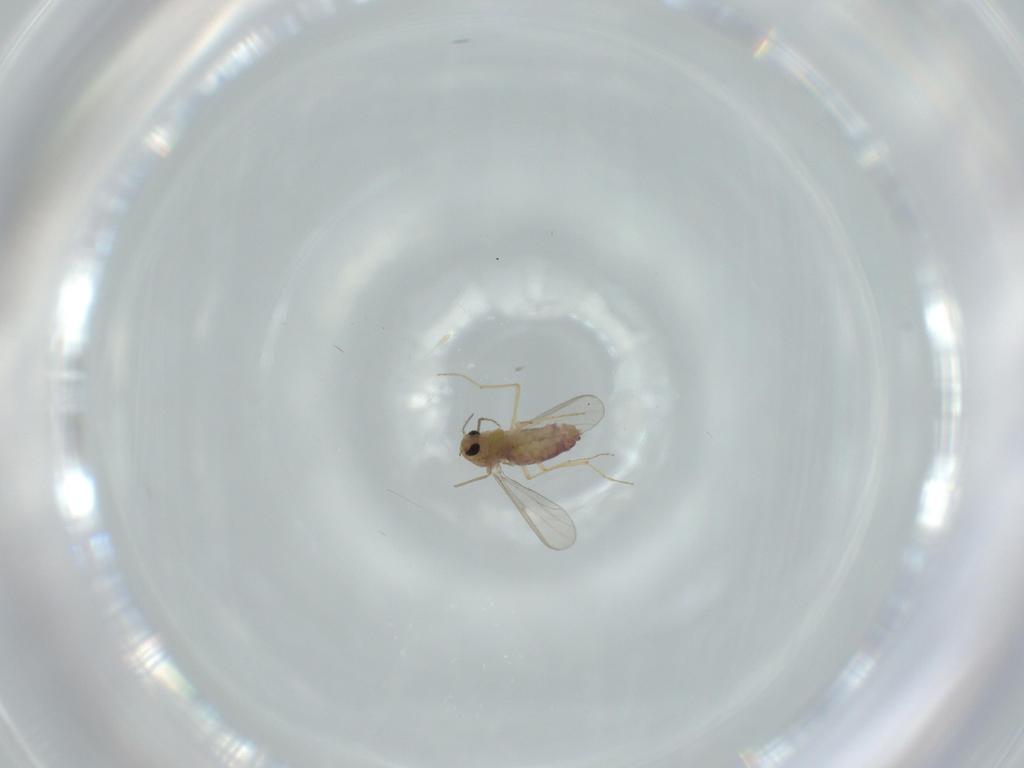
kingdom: Animalia
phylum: Arthropoda
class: Insecta
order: Diptera
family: Chironomidae
